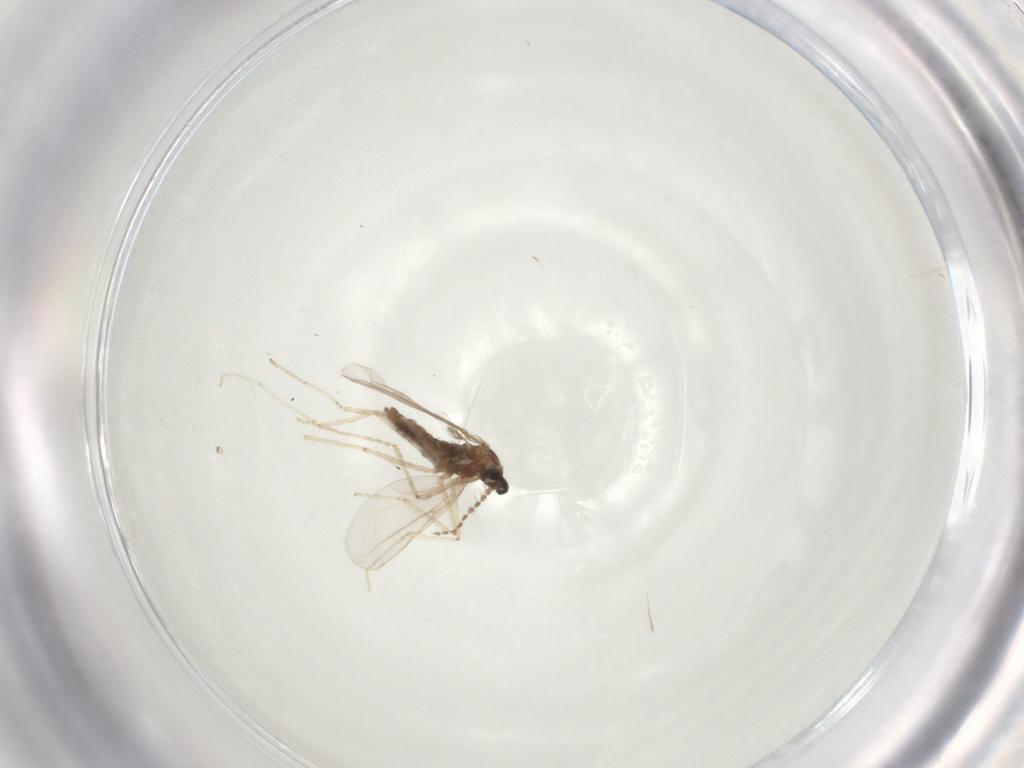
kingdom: Animalia
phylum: Arthropoda
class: Insecta
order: Diptera
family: Cecidomyiidae
